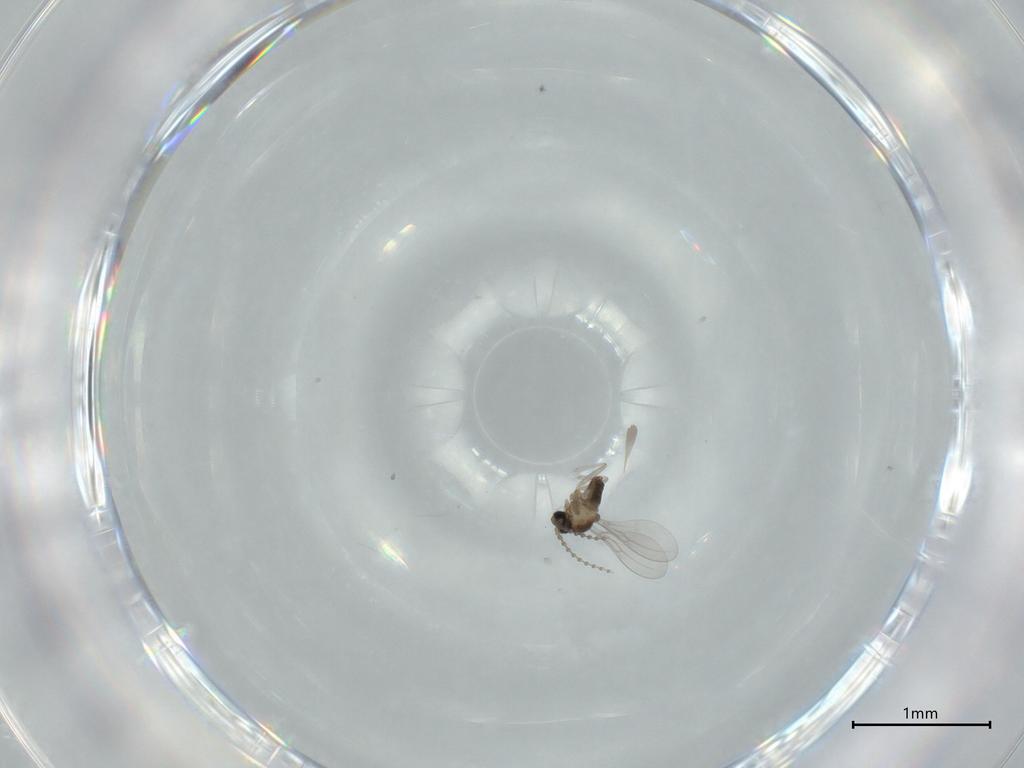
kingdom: Animalia
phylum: Arthropoda
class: Insecta
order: Diptera
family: Cecidomyiidae
